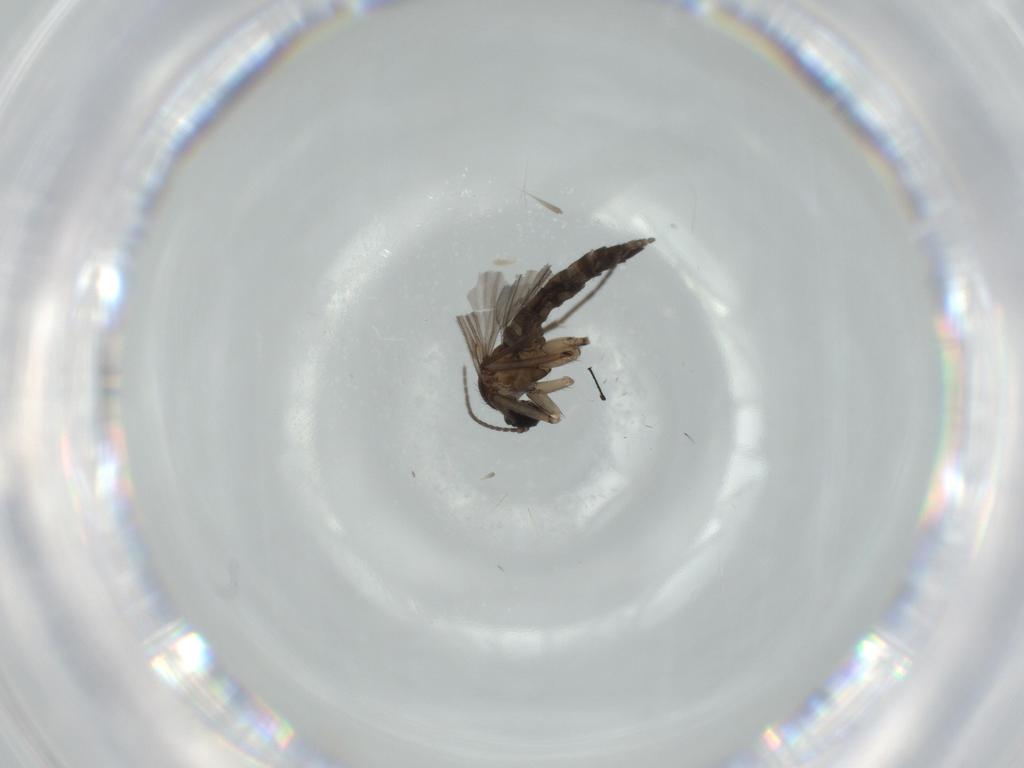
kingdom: Animalia
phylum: Arthropoda
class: Insecta
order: Diptera
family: Sciaridae
